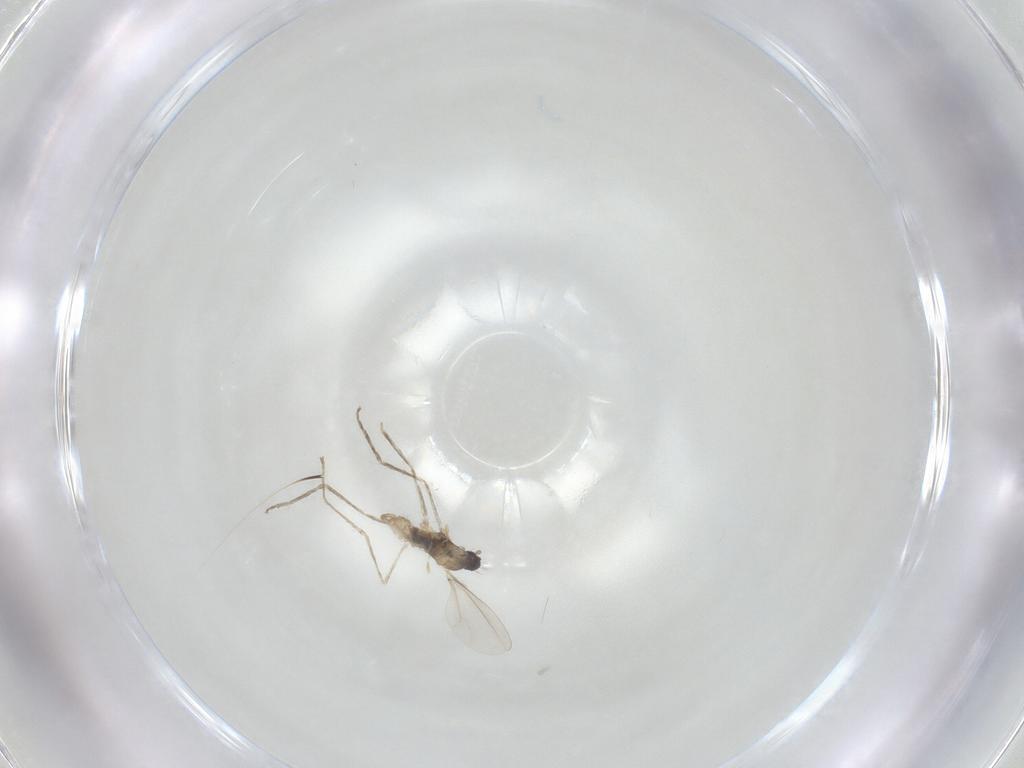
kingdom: Animalia
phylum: Arthropoda
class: Insecta
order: Diptera
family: Cecidomyiidae
